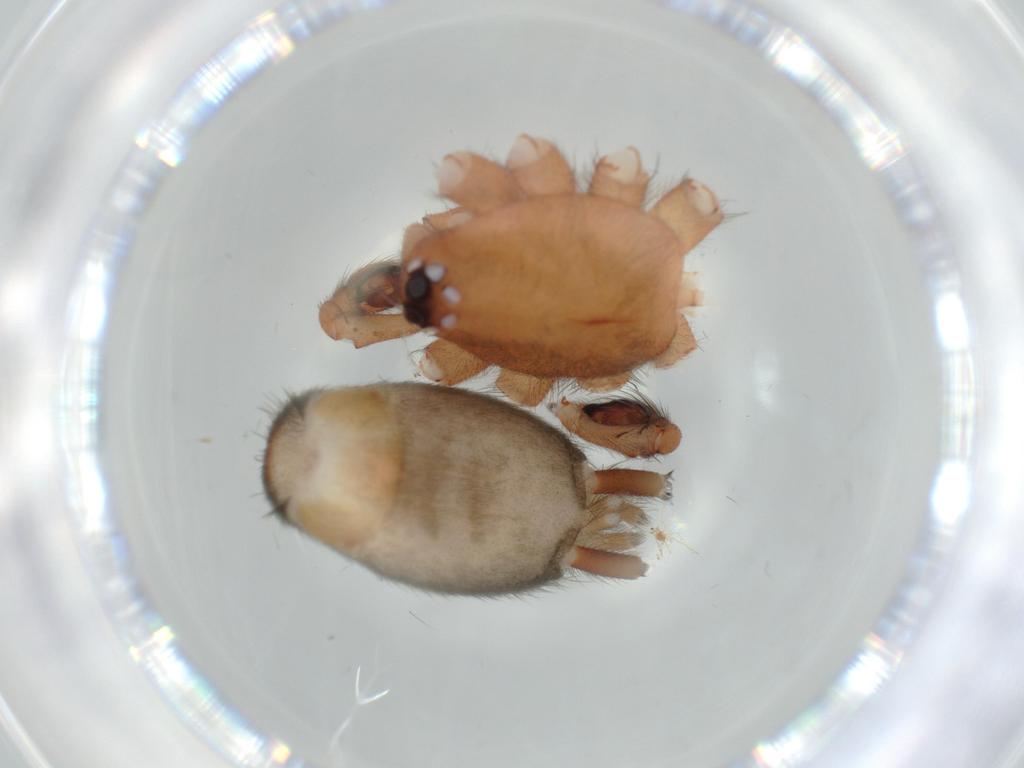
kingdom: Animalia
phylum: Arthropoda
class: Arachnida
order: Araneae
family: Gnaphosidae
